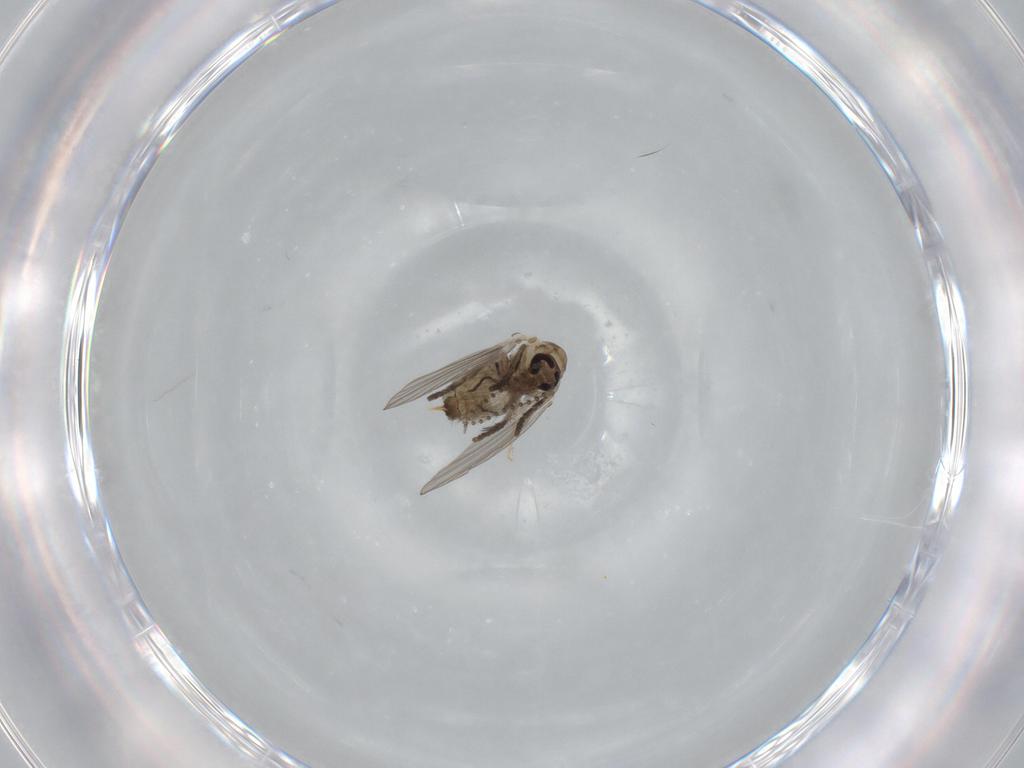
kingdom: Animalia
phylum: Arthropoda
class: Insecta
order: Diptera
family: Psychodidae
